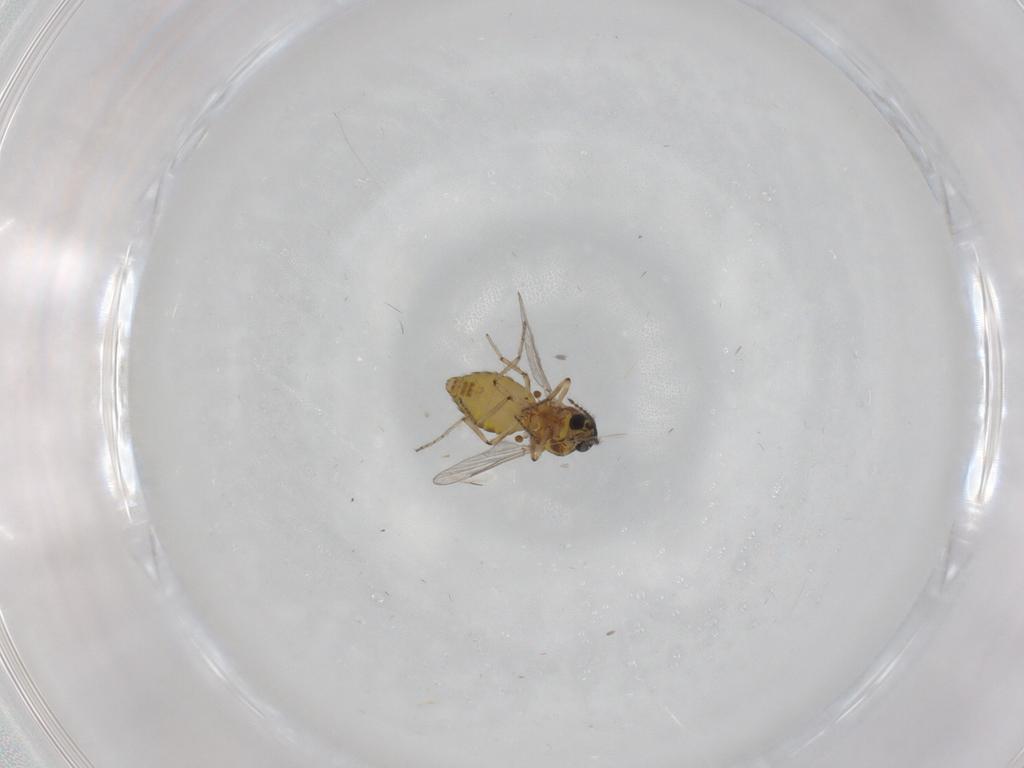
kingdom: Animalia
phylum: Arthropoda
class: Insecta
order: Diptera
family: Ceratopogonidae
